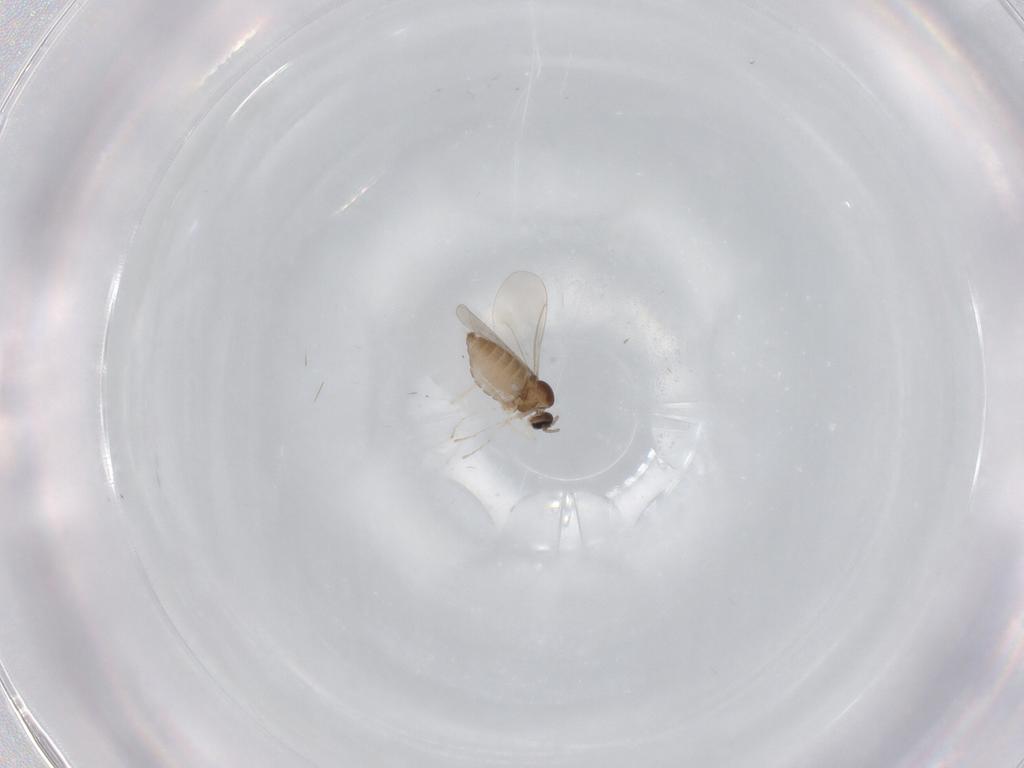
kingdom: Animalia
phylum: Arthropoda
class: Insecta
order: Diptera
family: Cecidomyiidae
